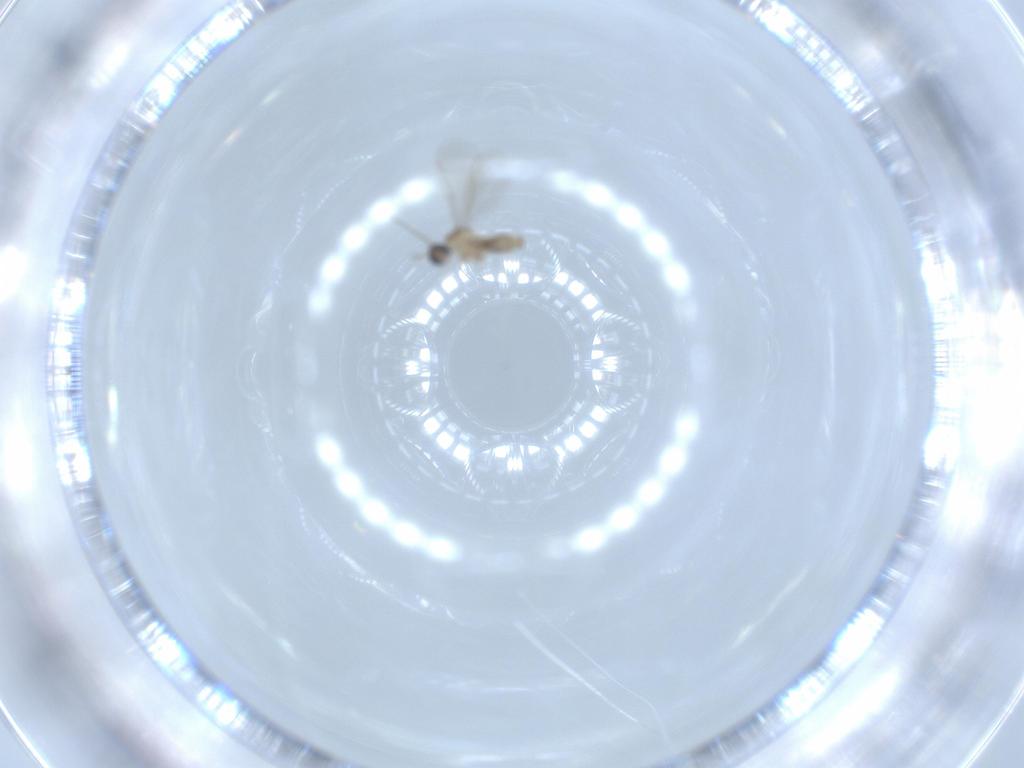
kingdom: Animalia
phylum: Arthropoda
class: Insecta
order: Diptera
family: Cecidomyiidae
